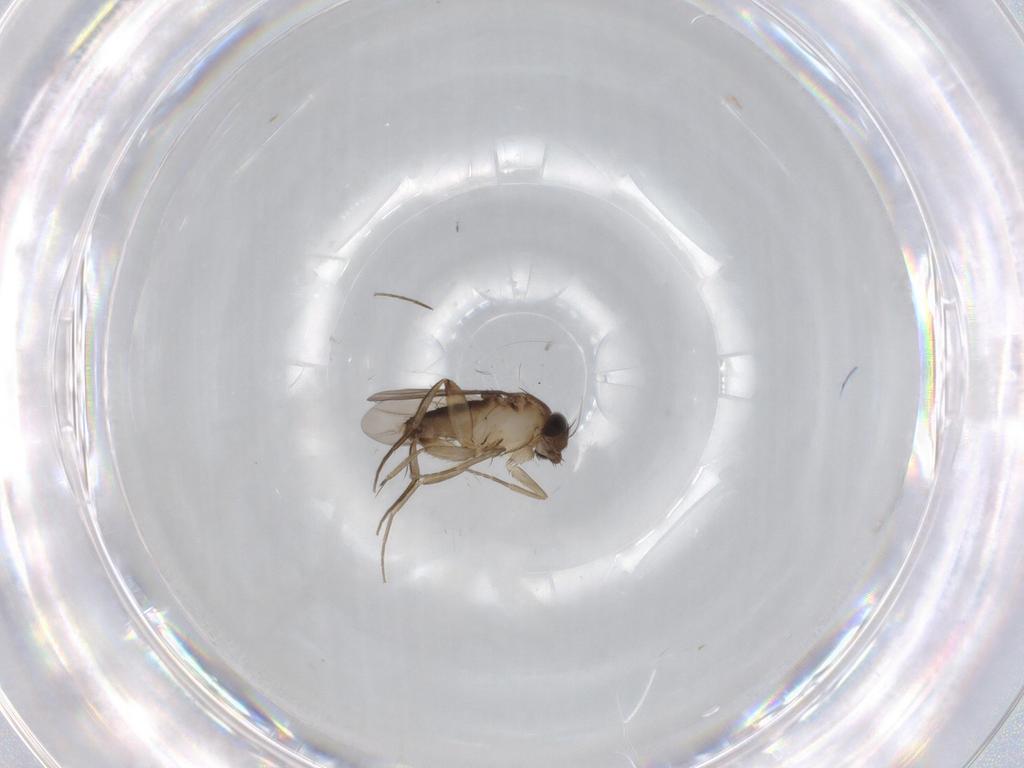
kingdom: Animalia
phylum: Arthropoda
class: Insecta
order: Diptera
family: Phoridae
